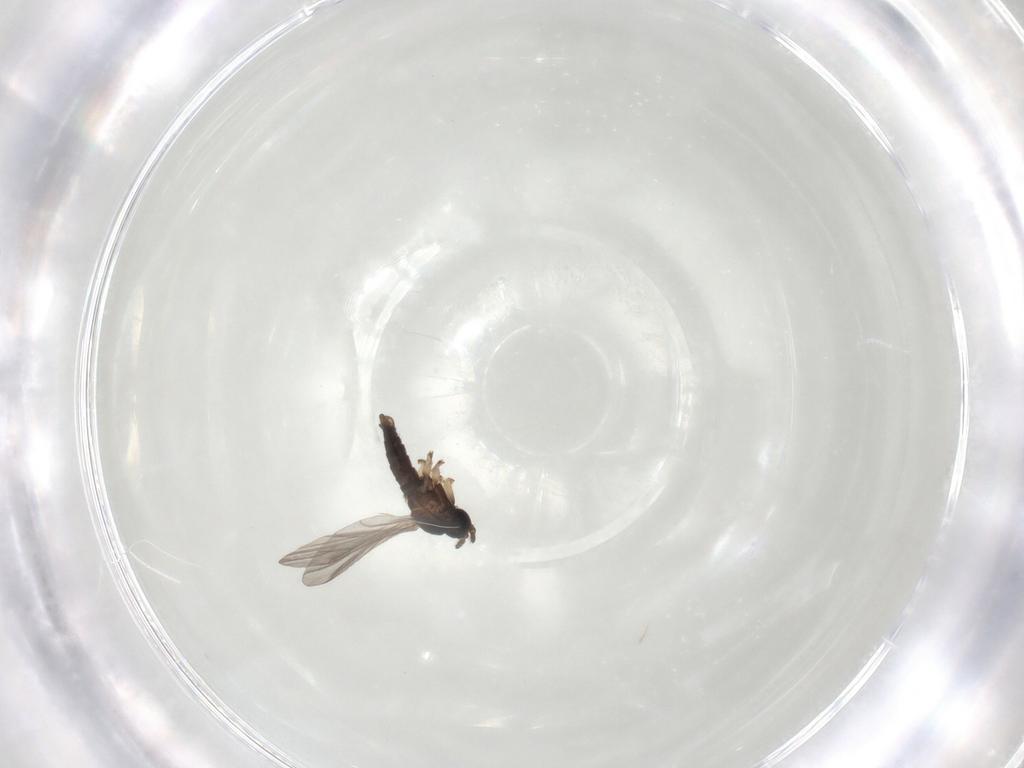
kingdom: Animalia
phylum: Arthropoda
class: Insecta
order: Diptera
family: Sciaridae
